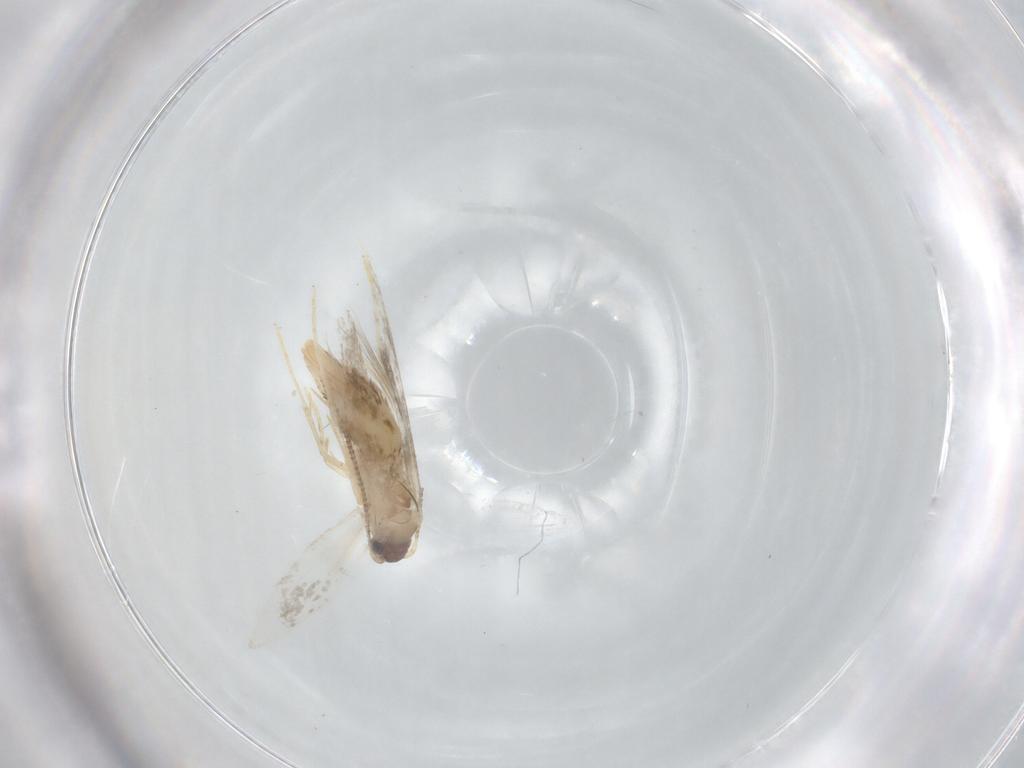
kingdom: Animalia
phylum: Arthropoda
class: Insecta
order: Lepidoptera
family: Tineidae
